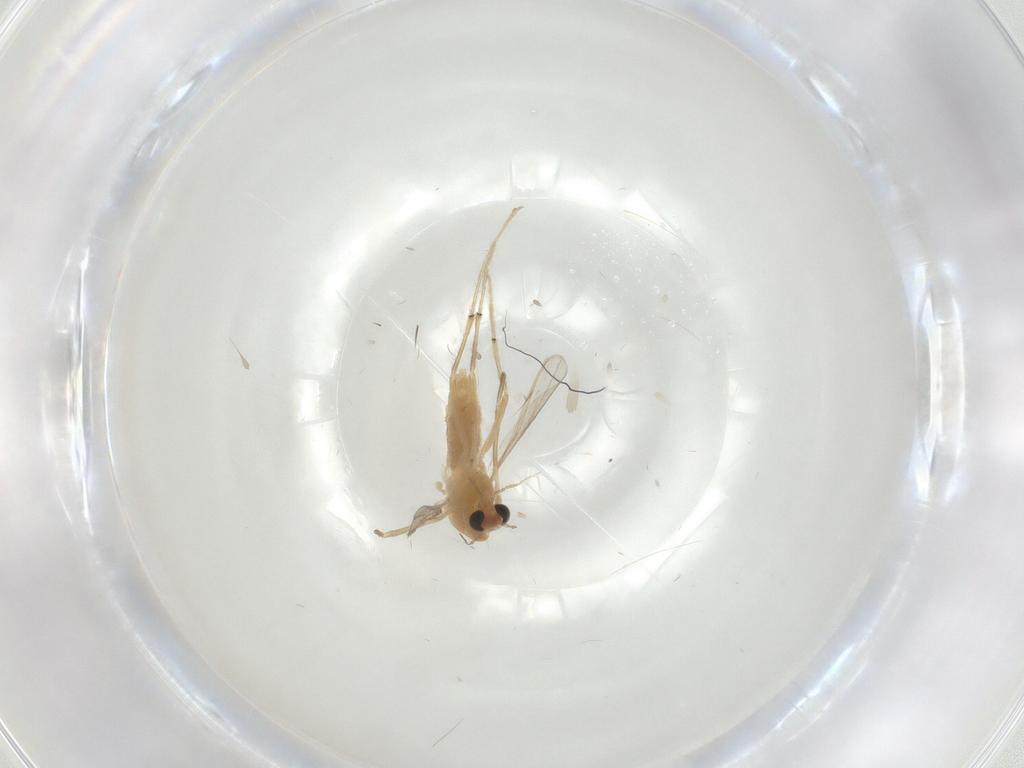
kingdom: Animalia
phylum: Arthropoda
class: Insecta
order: Diptera
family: Chironomidae
